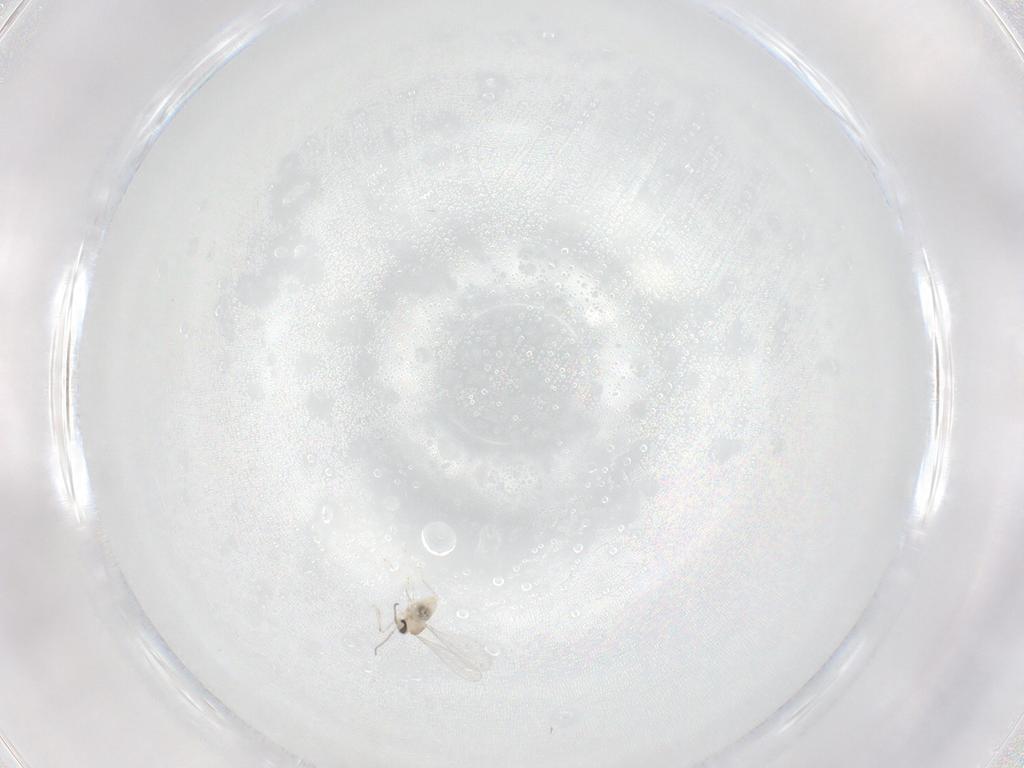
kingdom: Animalia
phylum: Arthropoda
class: Insecta
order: Diptera
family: Cecidomyiidae
